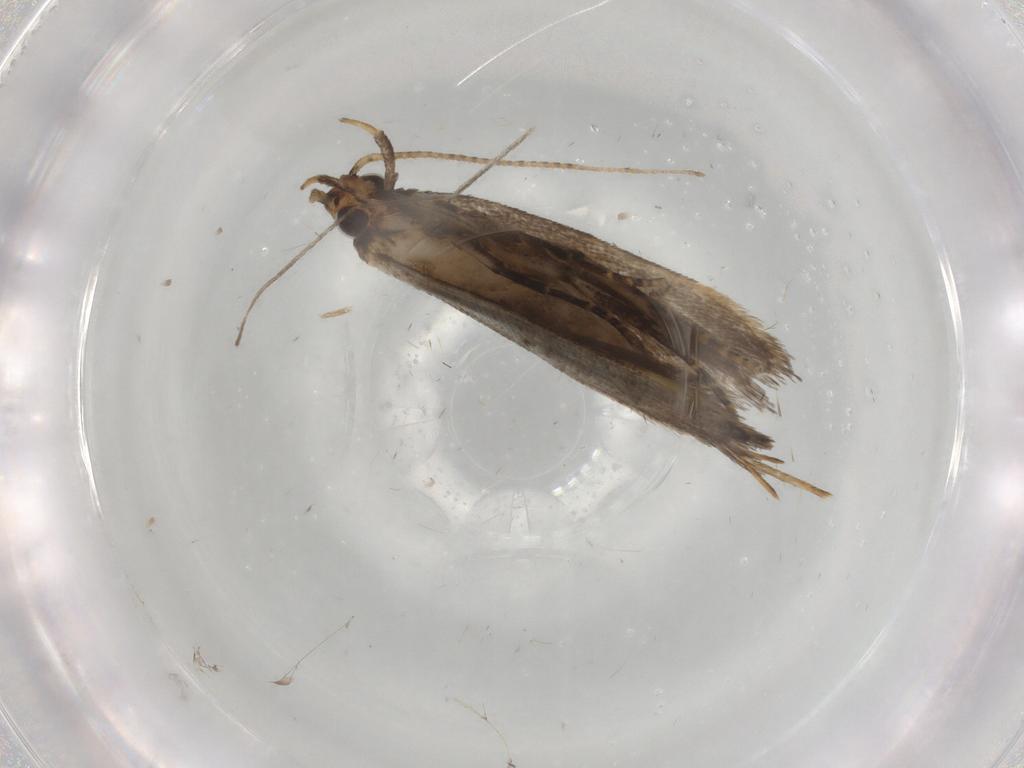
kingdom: Animalia
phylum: Arthropoda
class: Insecta
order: Lepidoptera
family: Gelechiidae
